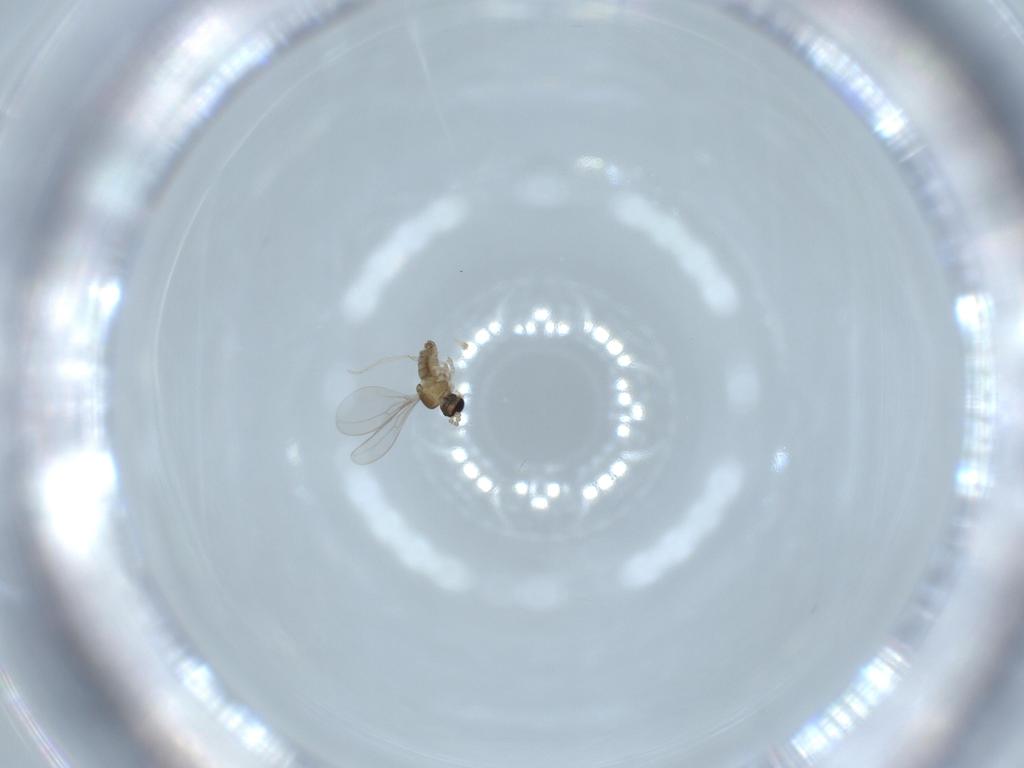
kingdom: Animalia
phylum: Arthropoda
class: Insecta
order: Diptera
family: Cecidomyiidae
